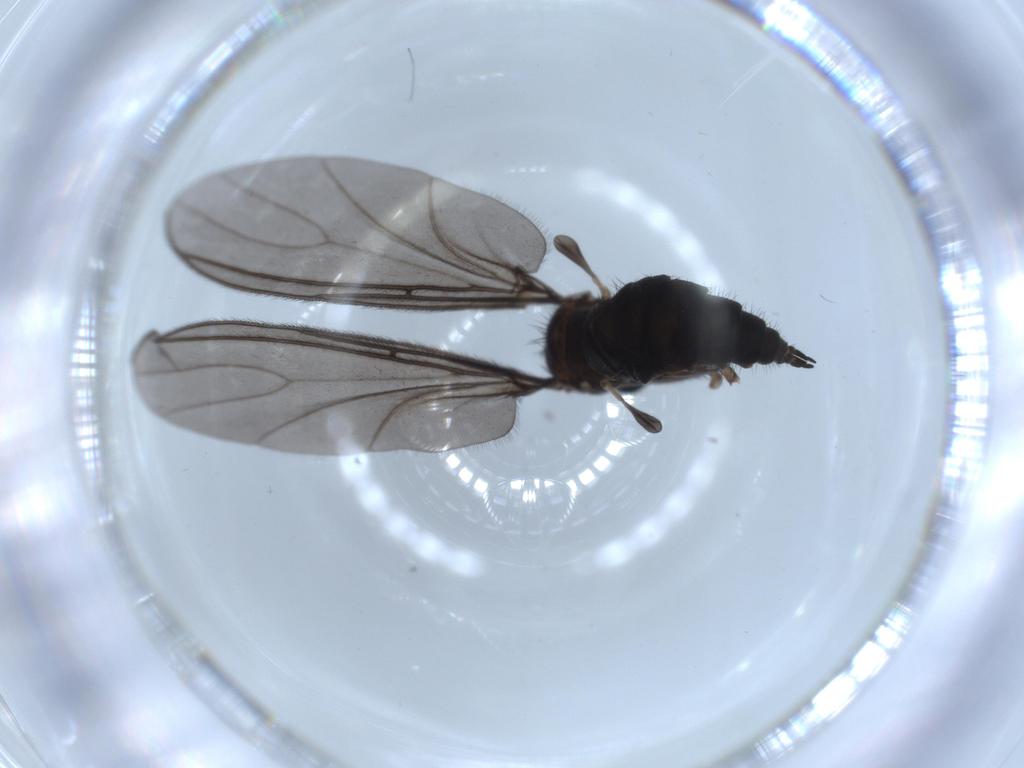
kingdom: Animalia
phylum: Arthropoda
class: Insecta
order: Diptera
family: Sciaridae
